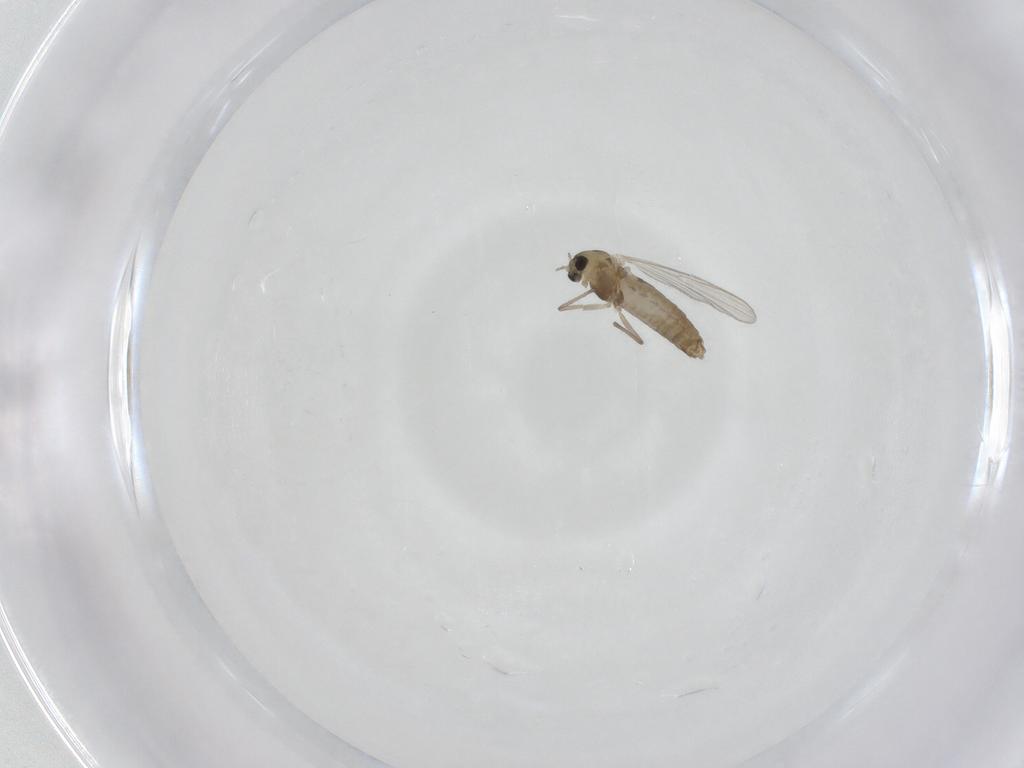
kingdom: Animalia
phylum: Arthropoda
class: Insecta
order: Diptera
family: Chironomidae
